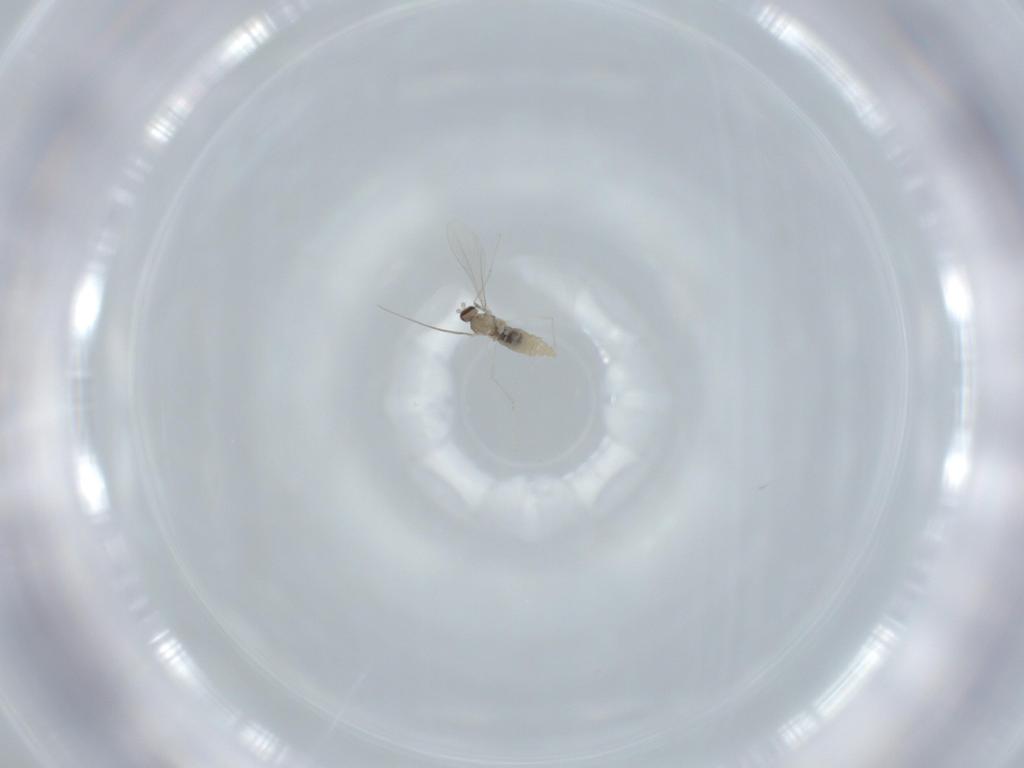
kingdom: Animalia
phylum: Arthropoda
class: Insecta
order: Diptera
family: Cecidomyiidae
